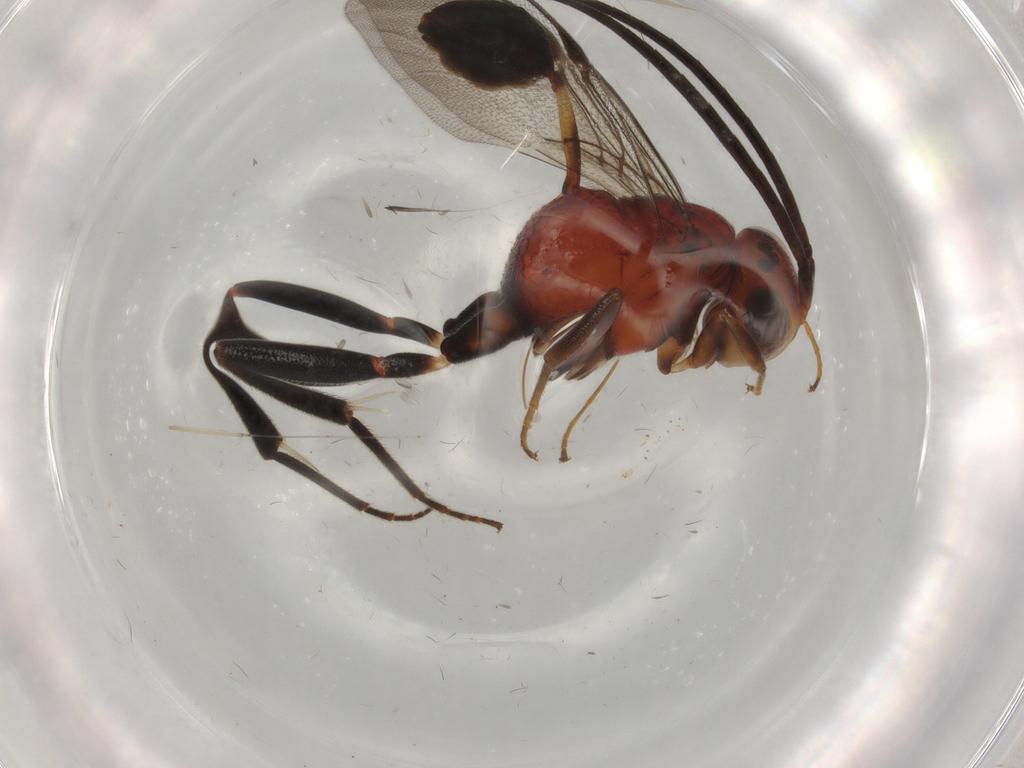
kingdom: Animalia
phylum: Arthropoda
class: Insecta
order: Hymenoptera
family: Evaniidae
